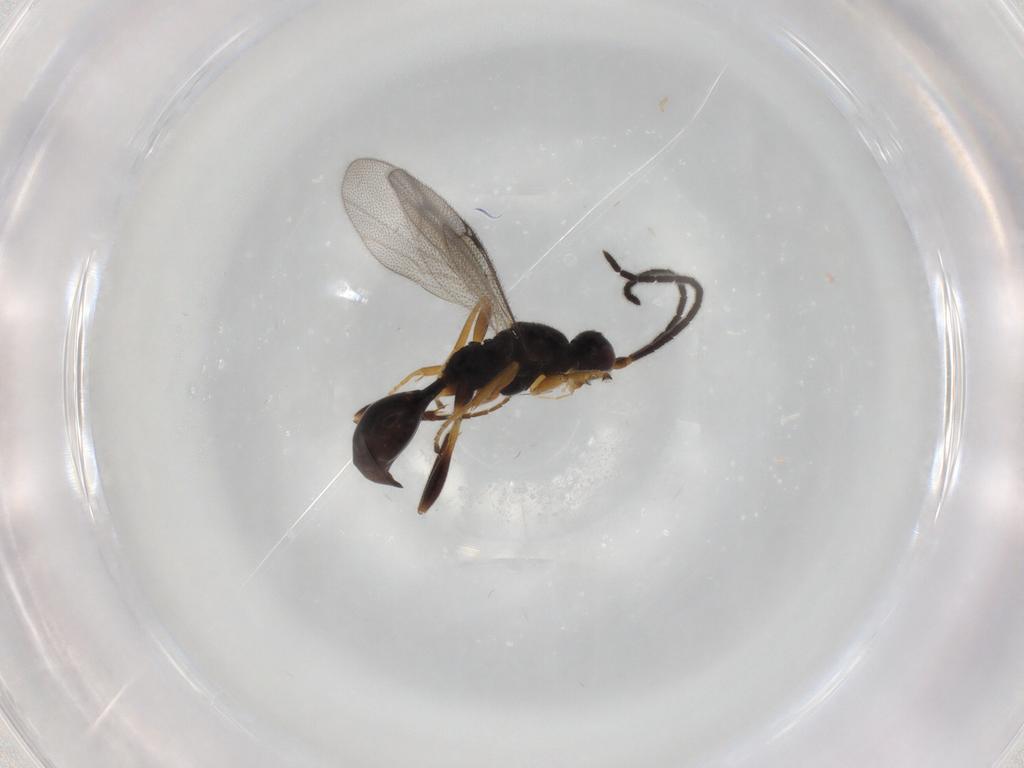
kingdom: Animalia
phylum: Arthropoda
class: Insecta
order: Hymenoptera
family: Proctotrupidae
